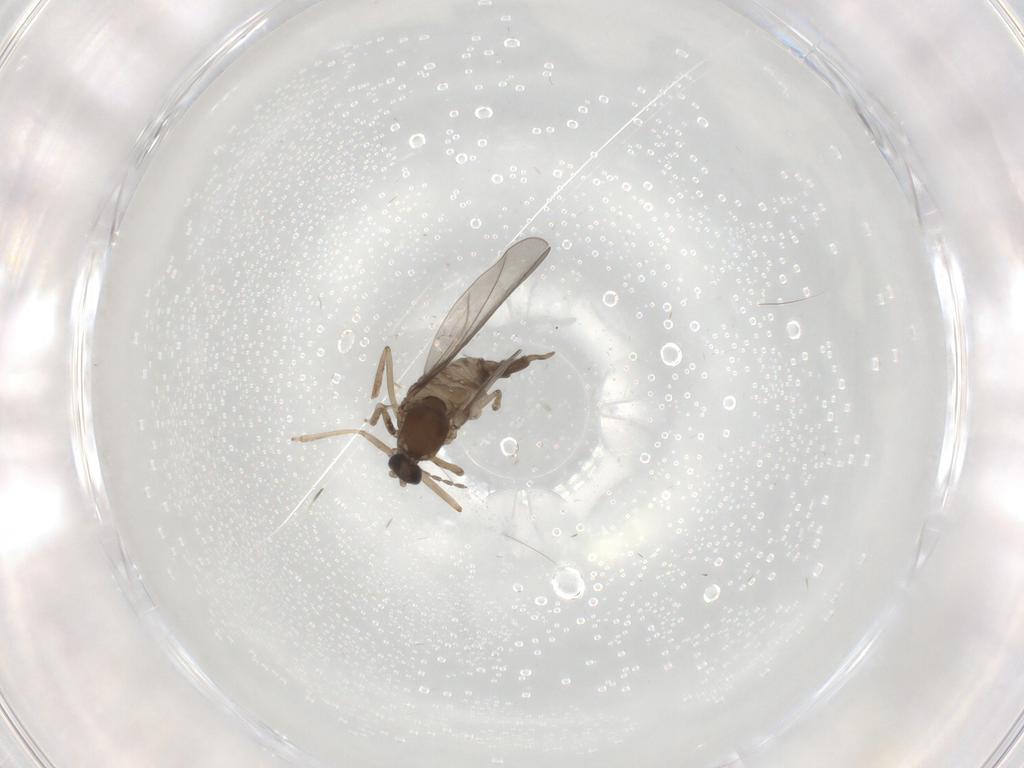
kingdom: Animalia
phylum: Arthropoda
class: Insecta
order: Diptera
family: Cecidomyiidae
